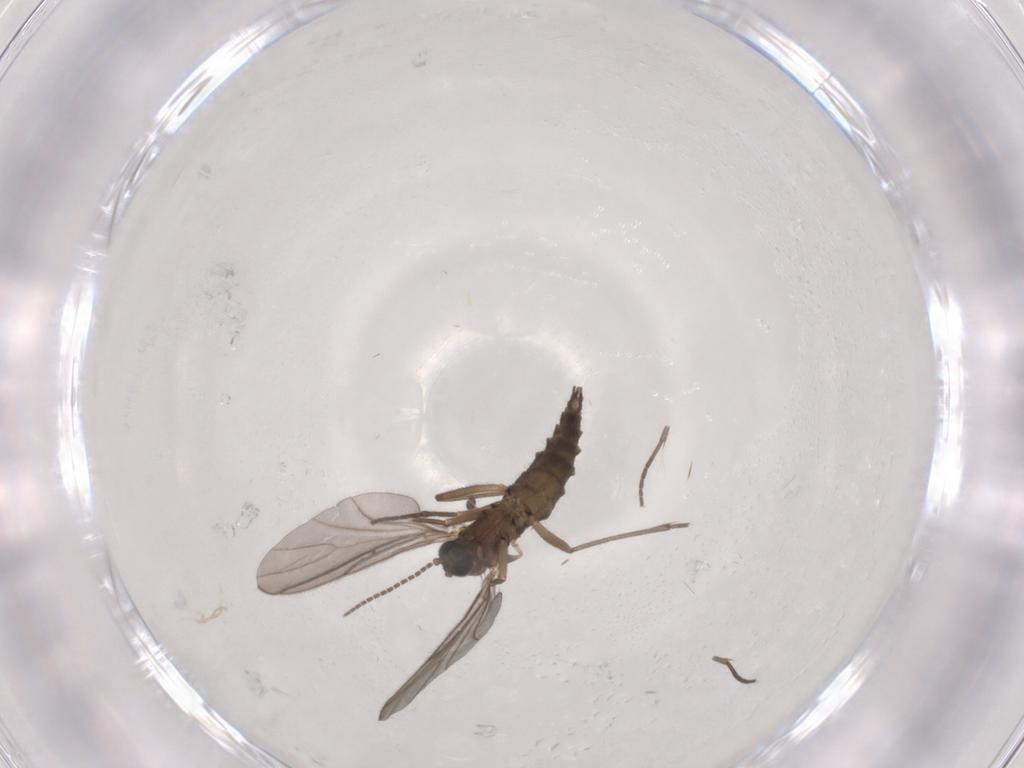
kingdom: Animalia
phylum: Arthropoda
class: Insecta
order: Diptera
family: Sciaridae
